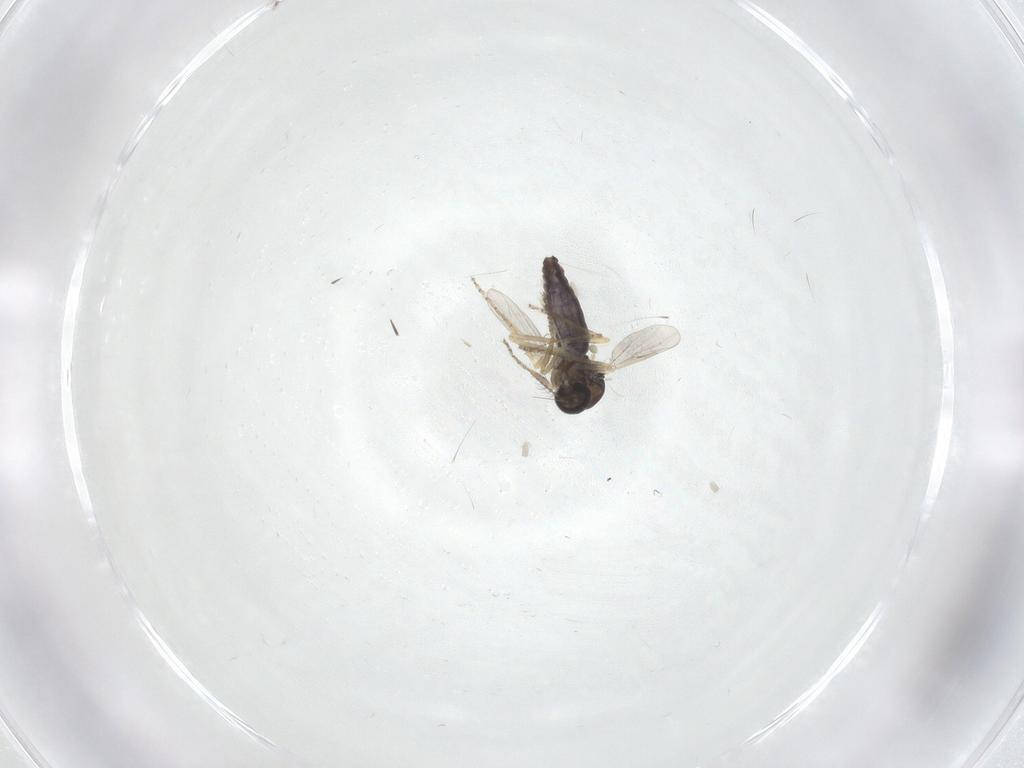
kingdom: Animalia
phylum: Arthropoda
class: Insecta
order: Diptera
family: Ceratopogonidae
